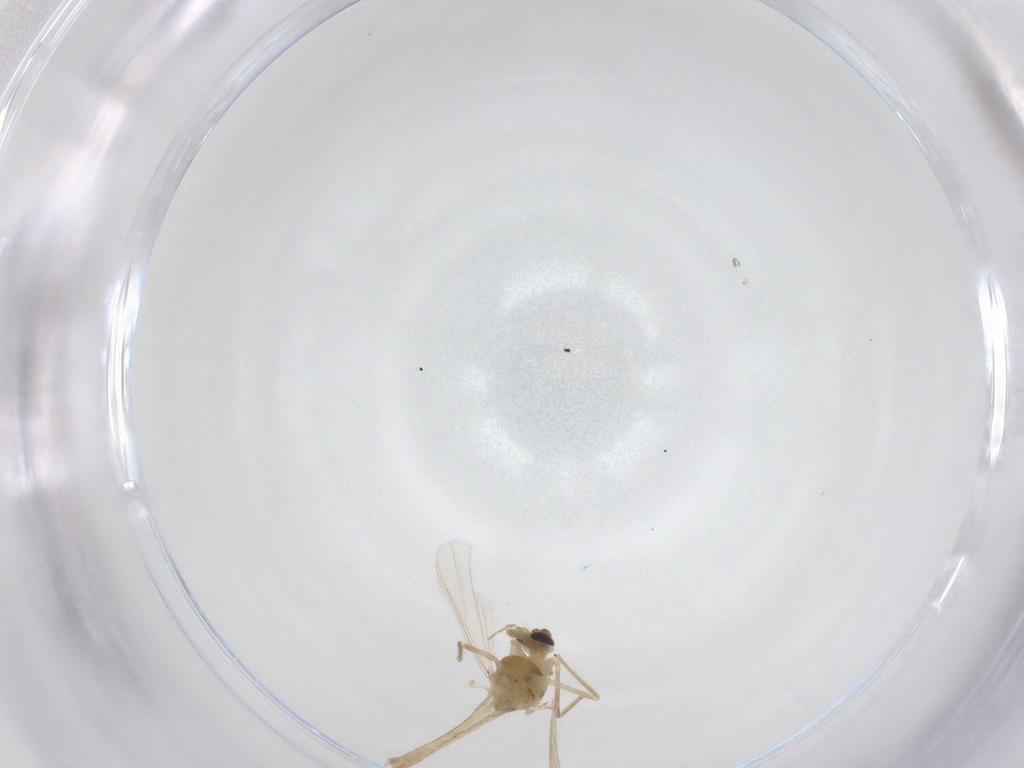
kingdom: Animalia
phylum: Arthropoda
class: Insecta
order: Diptera
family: Chironomidae
